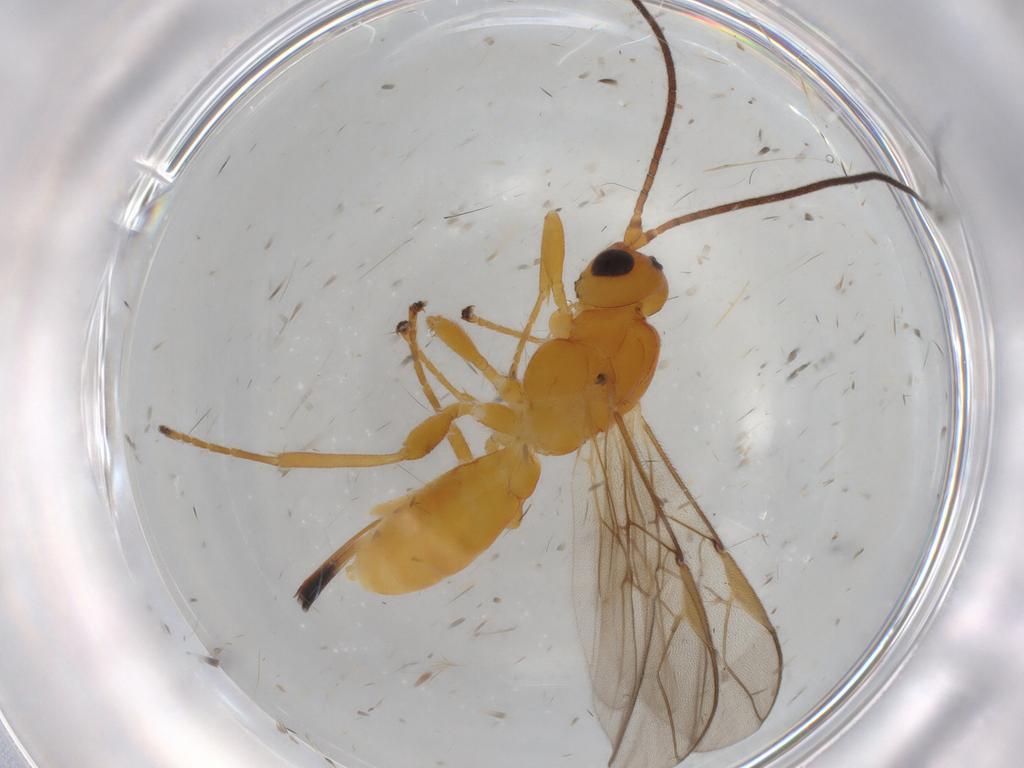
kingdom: Animalia
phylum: Arthropoda
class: Insecta
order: Hymenoptera
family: Braconidae
